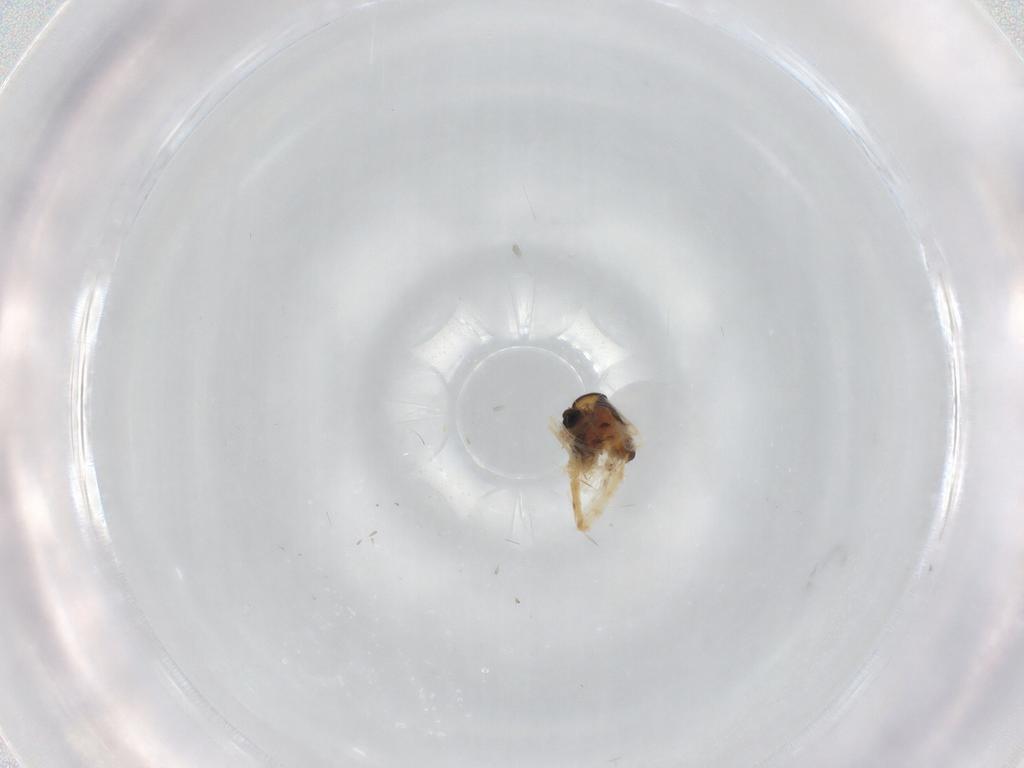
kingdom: Animalia
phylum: Arthropoda
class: Insecta
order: Diptera
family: Chironomidae
